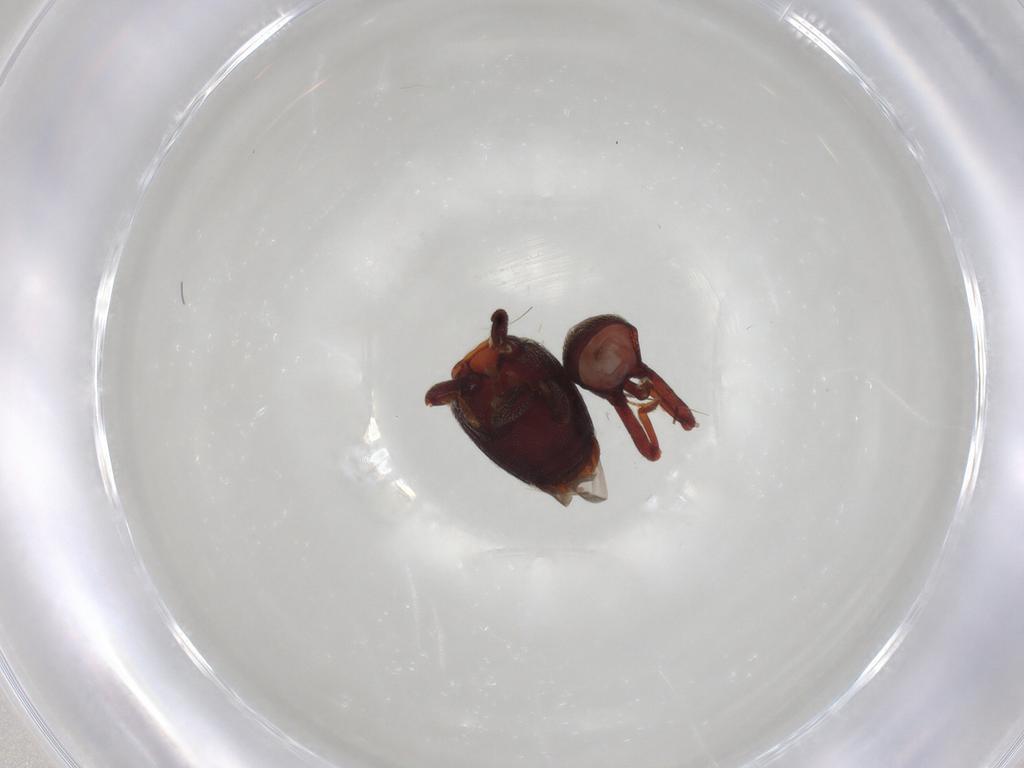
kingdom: Animalia
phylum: Arthropoda
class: Insecta
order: Coleoptera
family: Curculionidae
